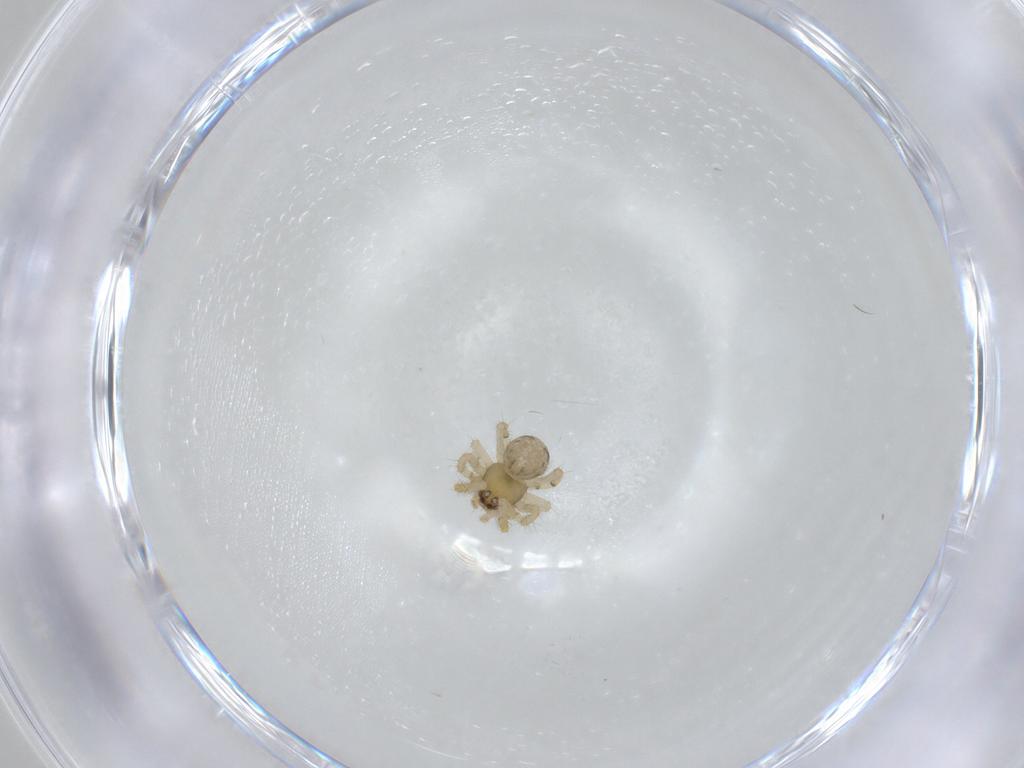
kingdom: Animalia
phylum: Arthropoda
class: Arachnida
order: Araneae
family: Theridiidae
